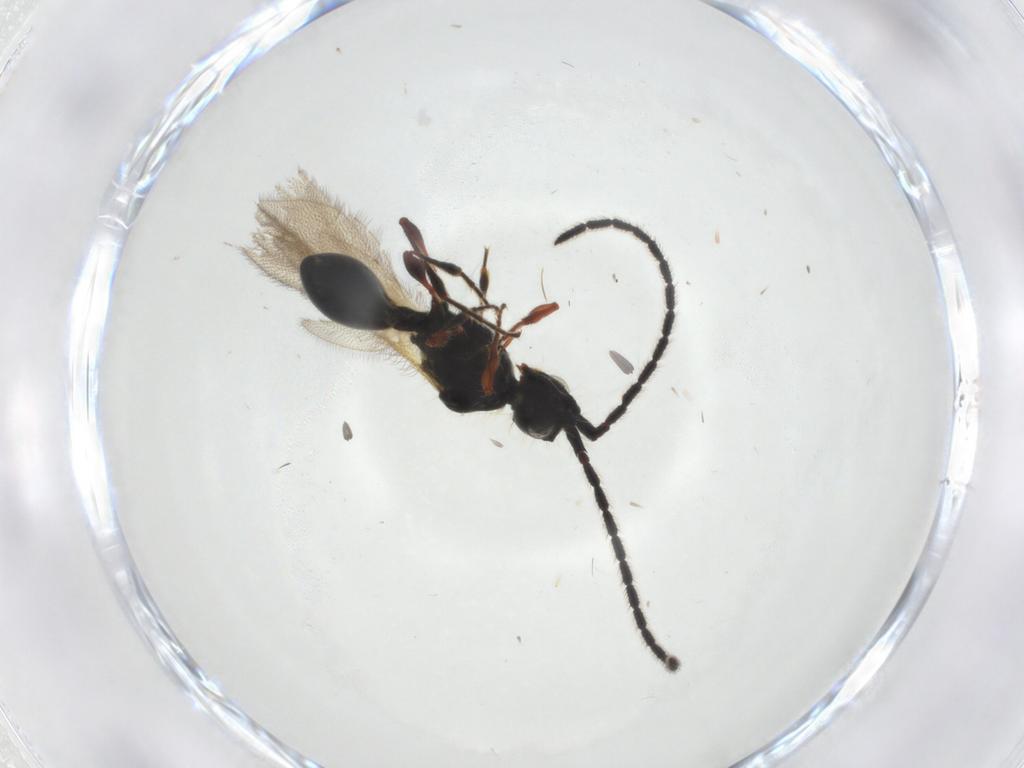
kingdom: Animalia
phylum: Arthropoda
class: Insecta
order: Hymenoptera
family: Diapriidae
